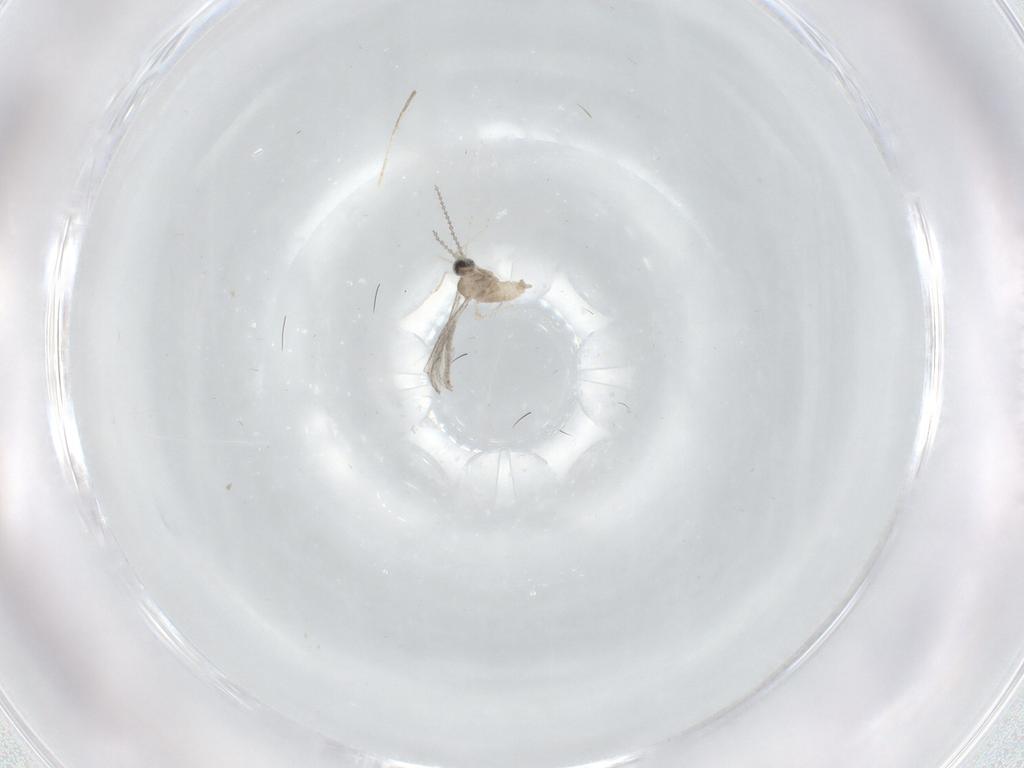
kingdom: Animalia
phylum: Arthropoda
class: Insecta
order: Diptera
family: Cecidomyiidae
